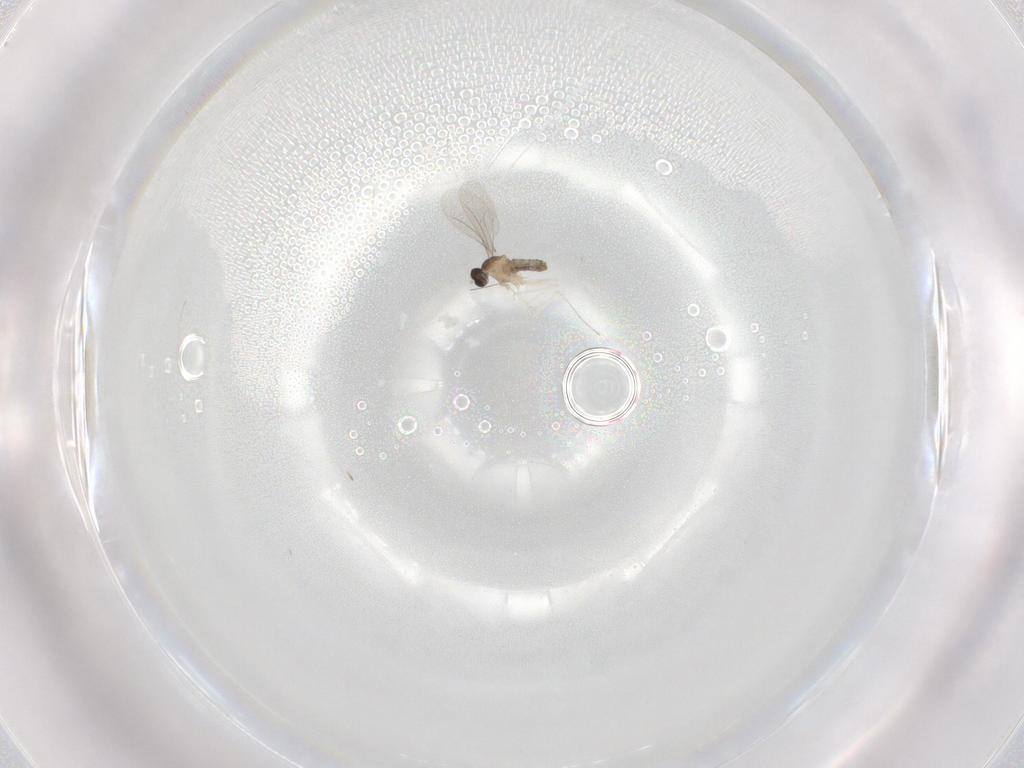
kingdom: Animalia
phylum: Arthropoda
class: Insecta
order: Diptera
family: Cecidomyiidae
